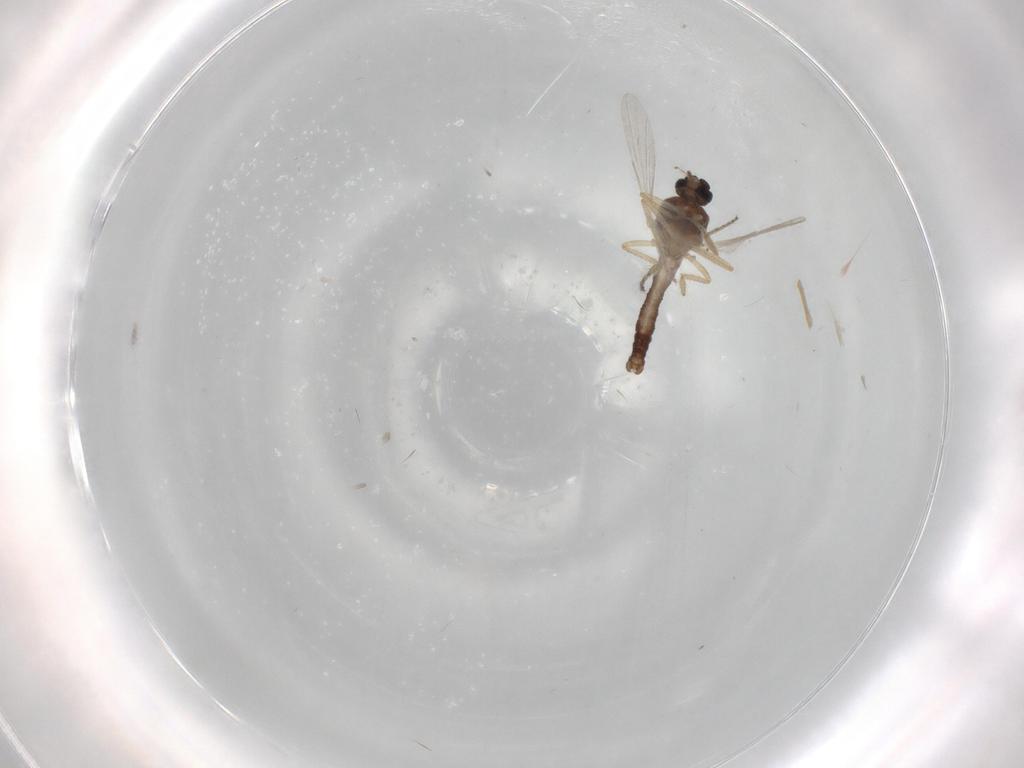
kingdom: Animalia
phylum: Arthropoda
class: Insecta
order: Diptera
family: Ceratopogonidae
